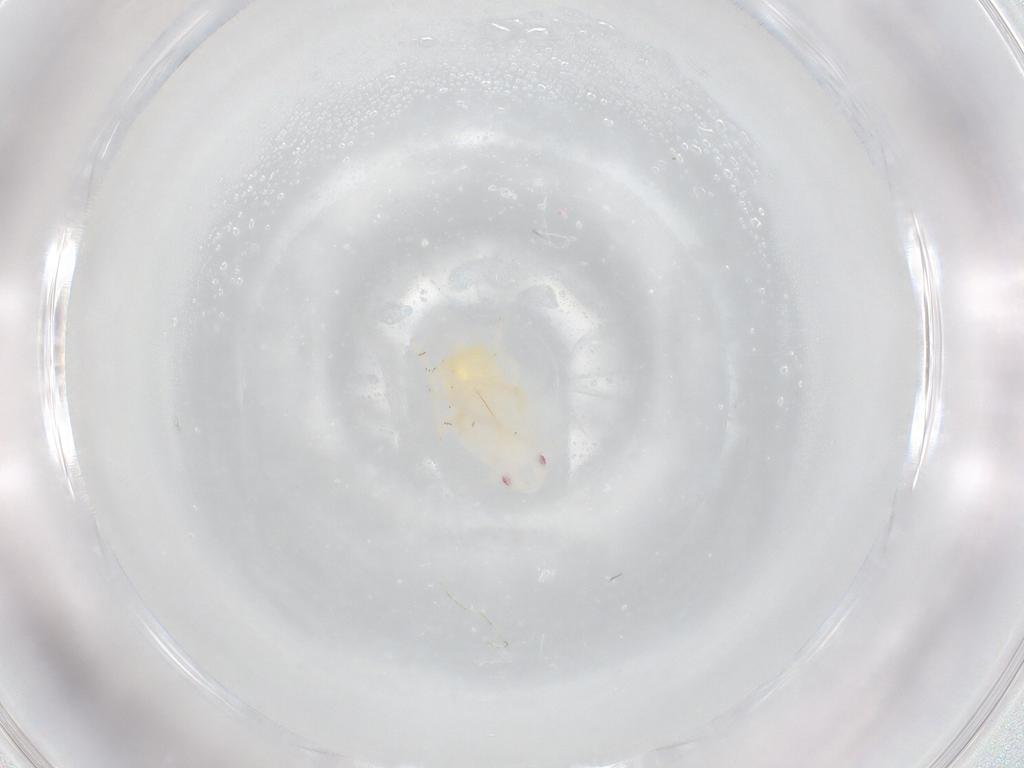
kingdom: Animalia
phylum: Arthropoda
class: Insecta
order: Hemiptera
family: Flatidae
